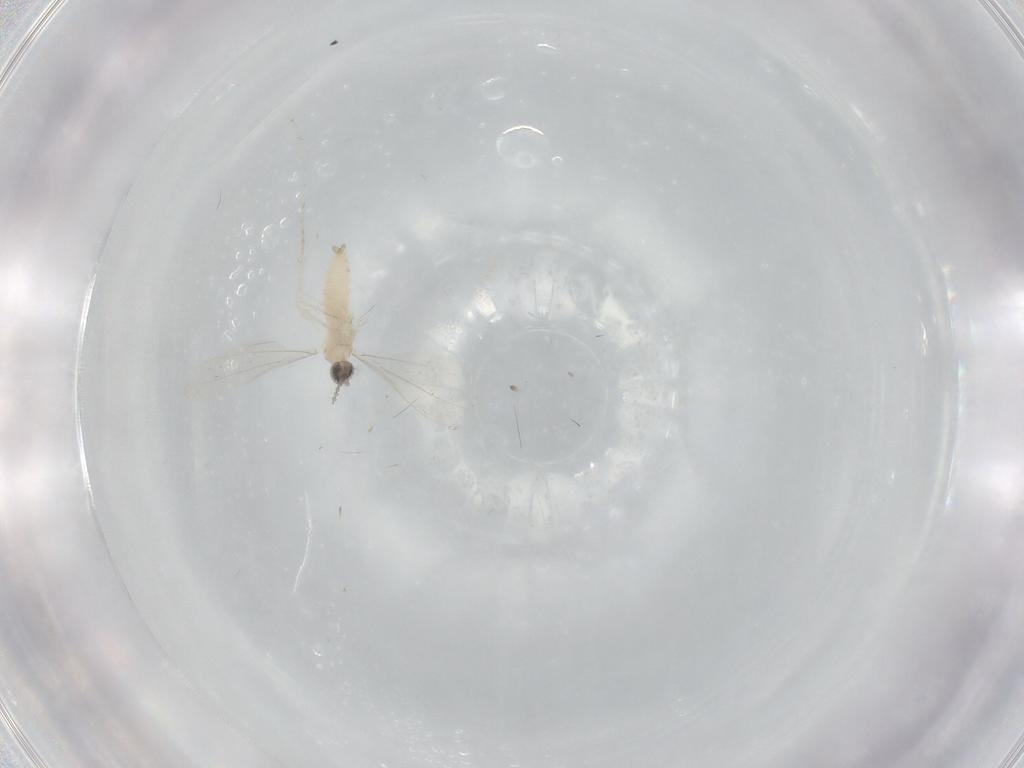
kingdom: Animalia
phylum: Arthropoda
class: Insecta
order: Diptera
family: Cecidomyiidae
